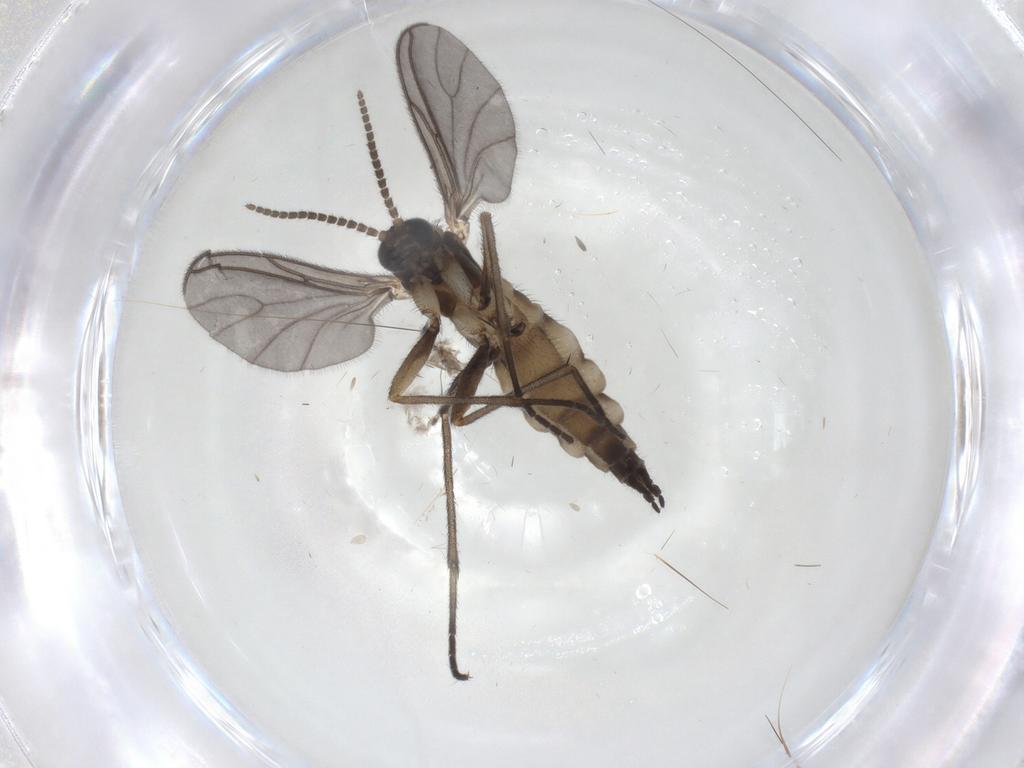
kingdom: Animalia
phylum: Arthropoda
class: Insecta
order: Diptera
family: Sciaridae
